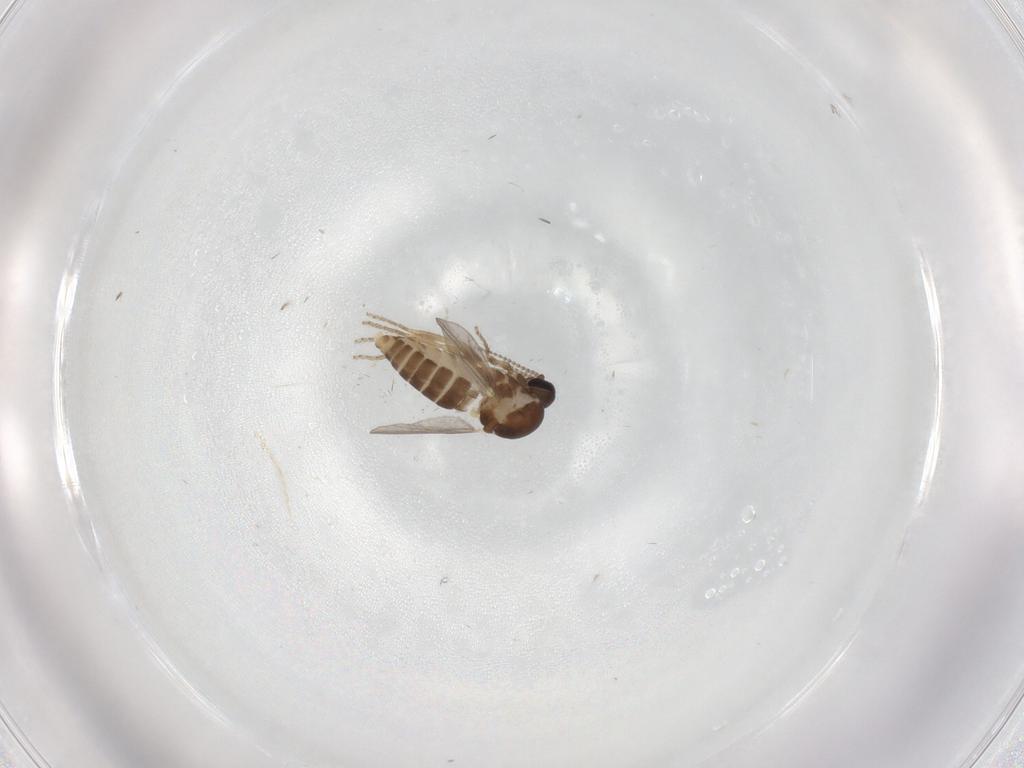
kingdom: Animalia
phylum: Arthropoda
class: Insecta
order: Diptera
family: Ceratopogonidae
